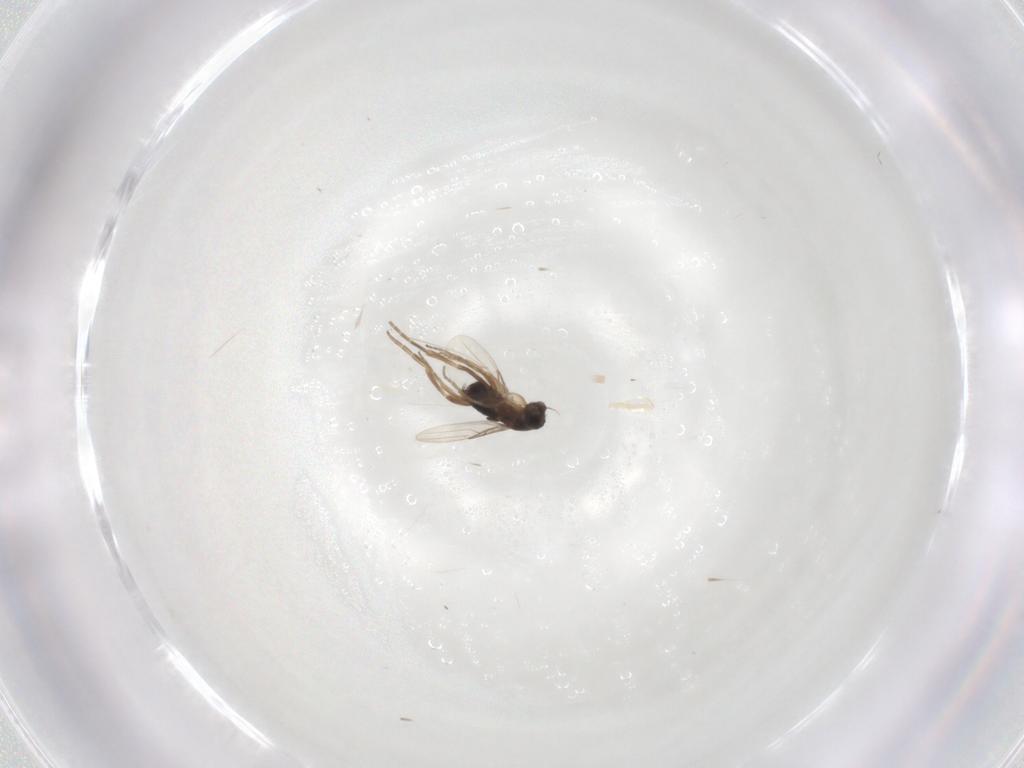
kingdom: Animalia
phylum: Arthropoda
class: Insecta
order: Diptera
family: Phoridae
